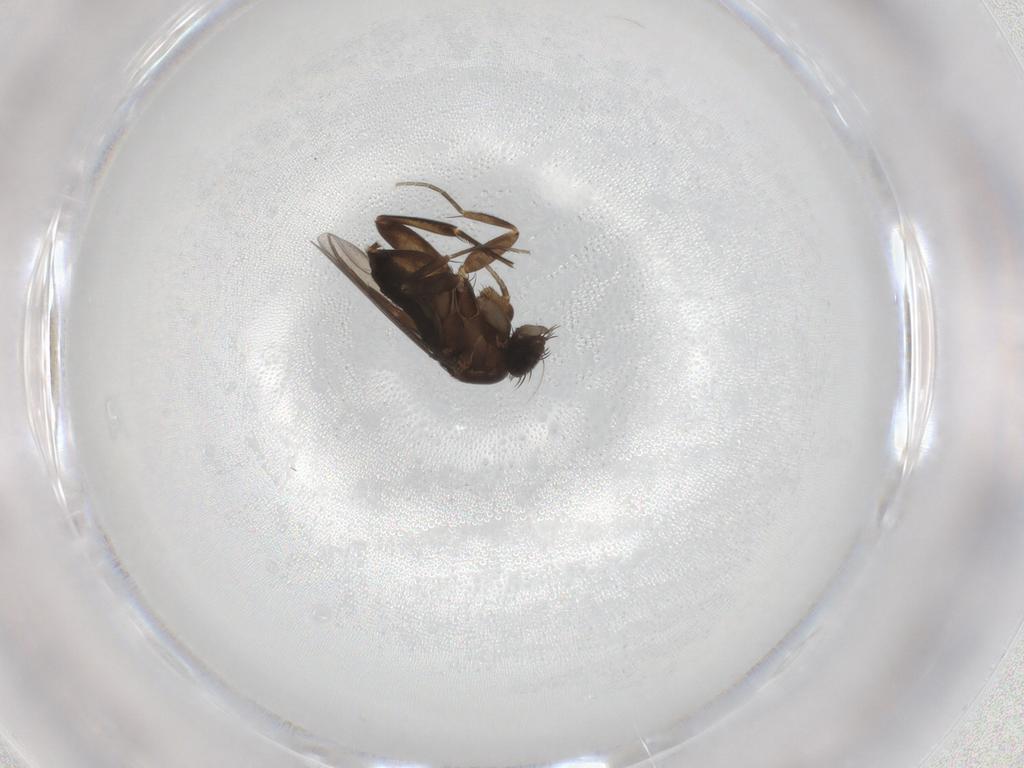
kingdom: Animalia
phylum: Arthropoda
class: Insecta
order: Diptera
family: Phoridae
